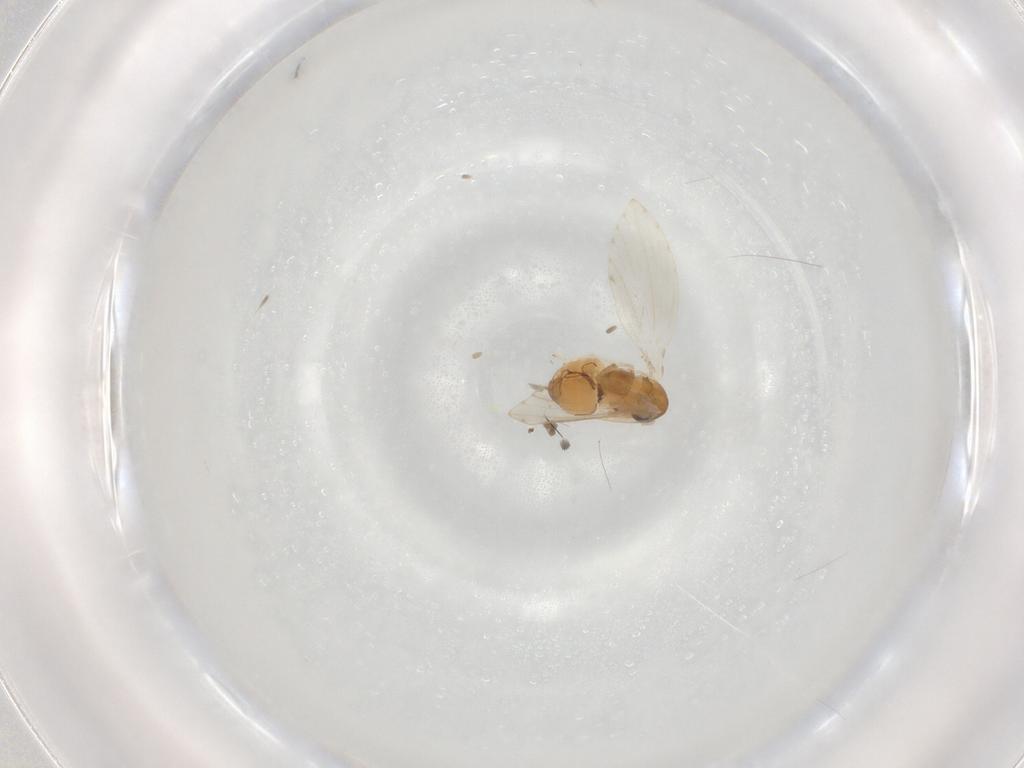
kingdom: Animalia
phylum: Arthropoda
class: Insecta
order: Diptera
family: Psychodidae
